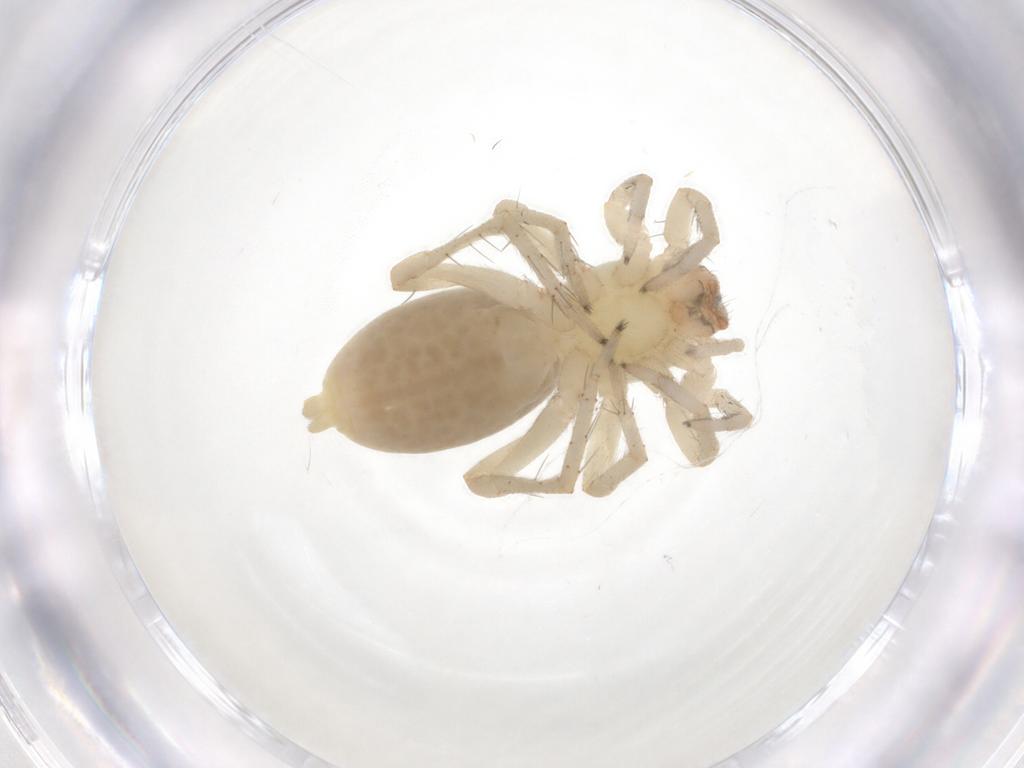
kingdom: Animalia
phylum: Arthropoda
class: Arachnida
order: Araneae
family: Clubionidae
